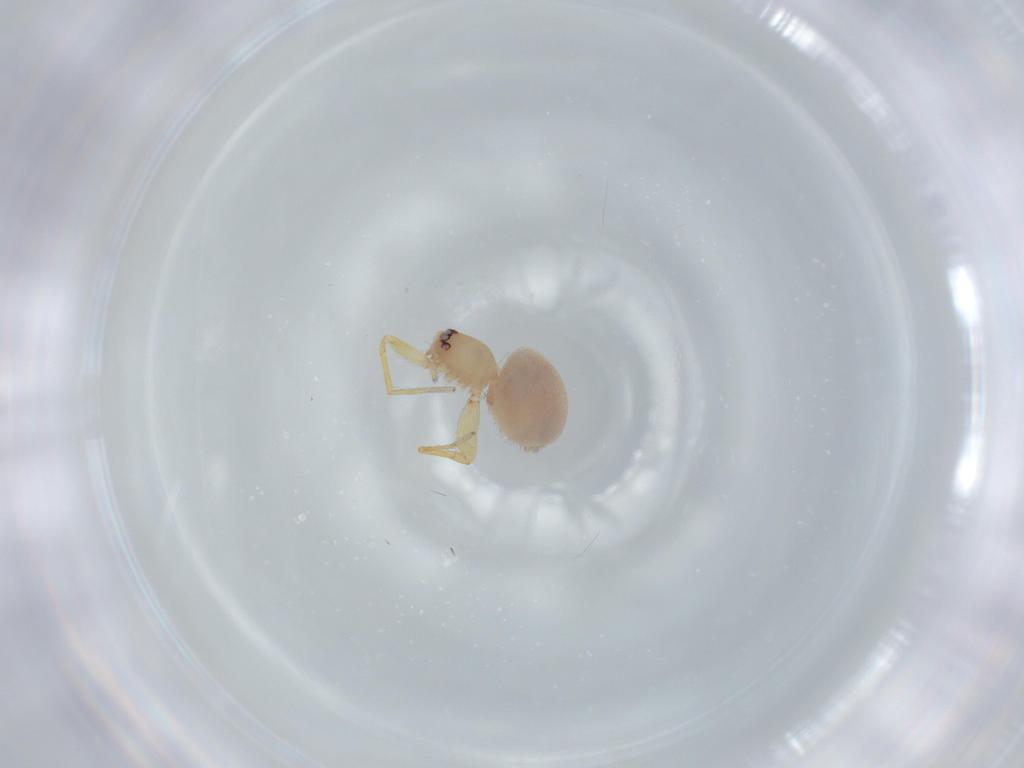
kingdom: Animalia
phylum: Arthropoda
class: Arachnida
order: Araneae
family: Oonopidae
